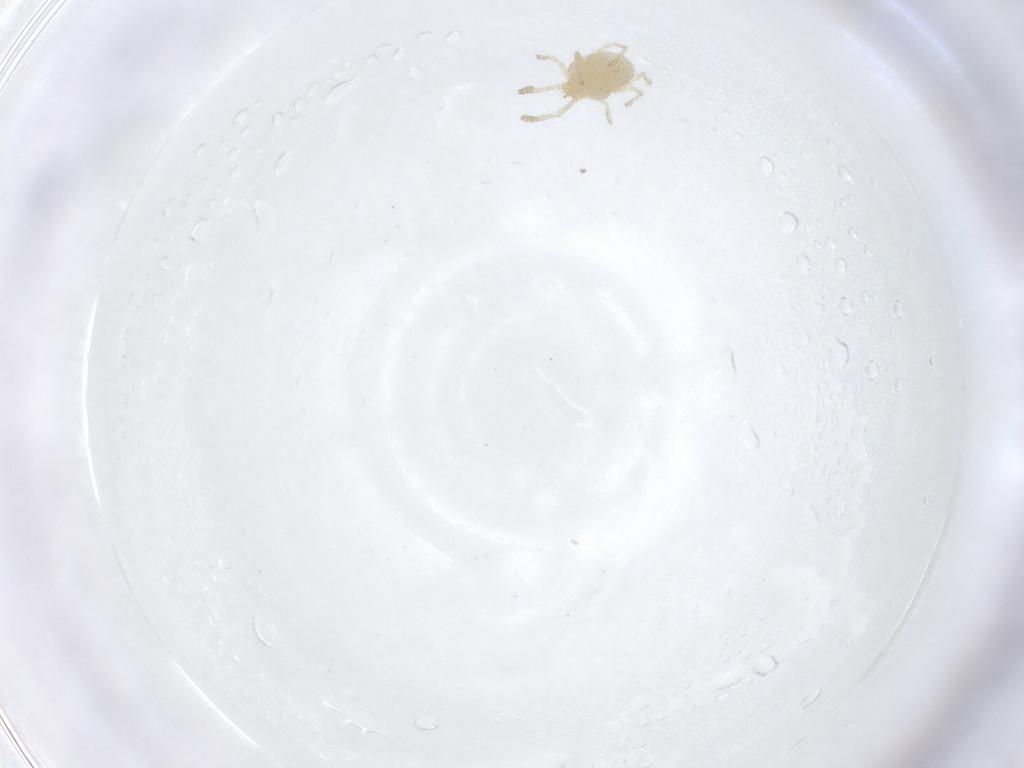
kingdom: Animalia
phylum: Arthropoda
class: Arachnida
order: Trombidiformes
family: Smarididae
